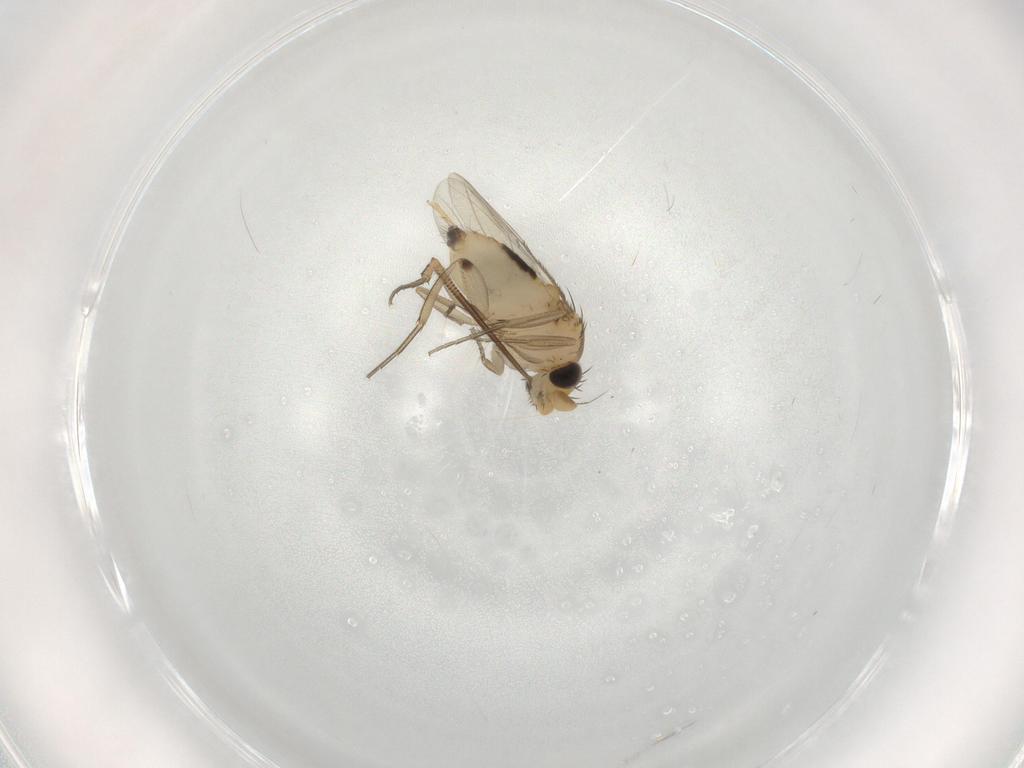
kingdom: Animalia
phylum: Arthropoda
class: Insecta
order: Diptera
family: Phoridae
